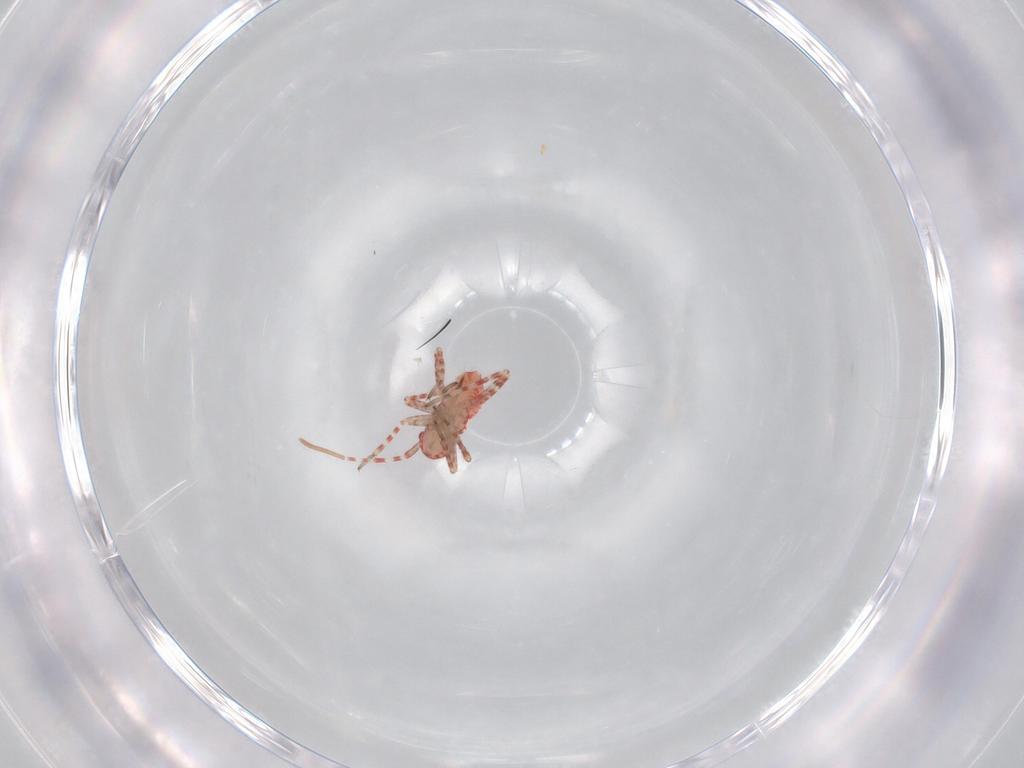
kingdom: Animalia
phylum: Arthropoda
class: Insecta
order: Hemiptera
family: Miridae
